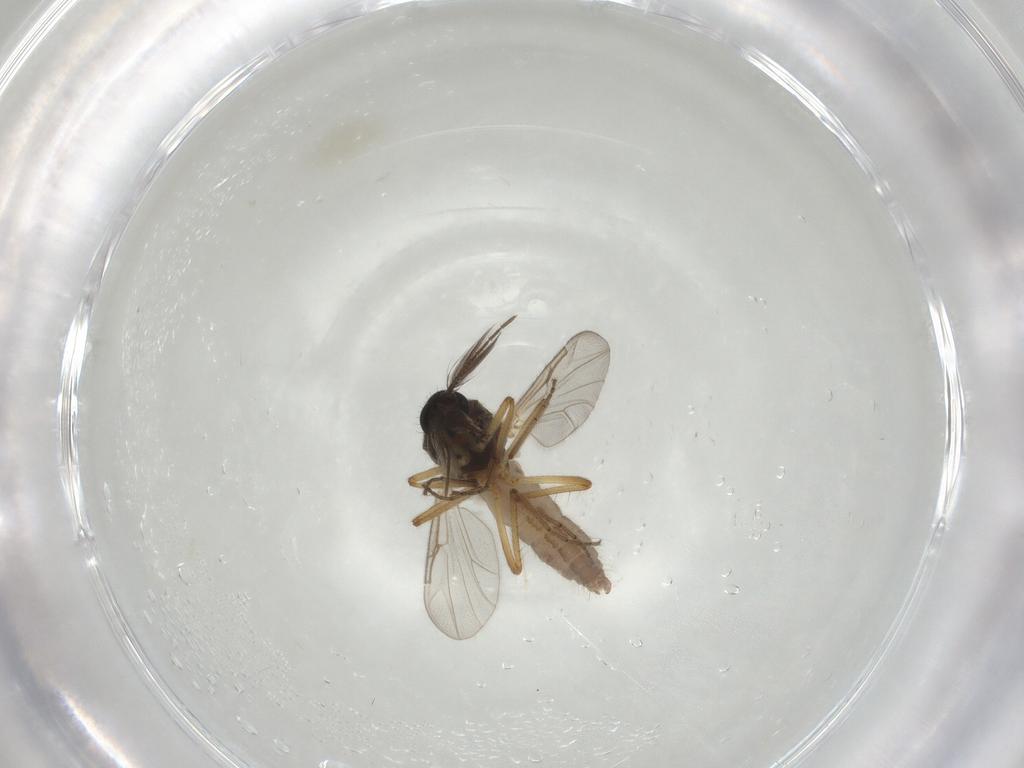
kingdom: Animalia
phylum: Arthropoda
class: Insecta
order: Diptera
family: Ceratopogonidae
